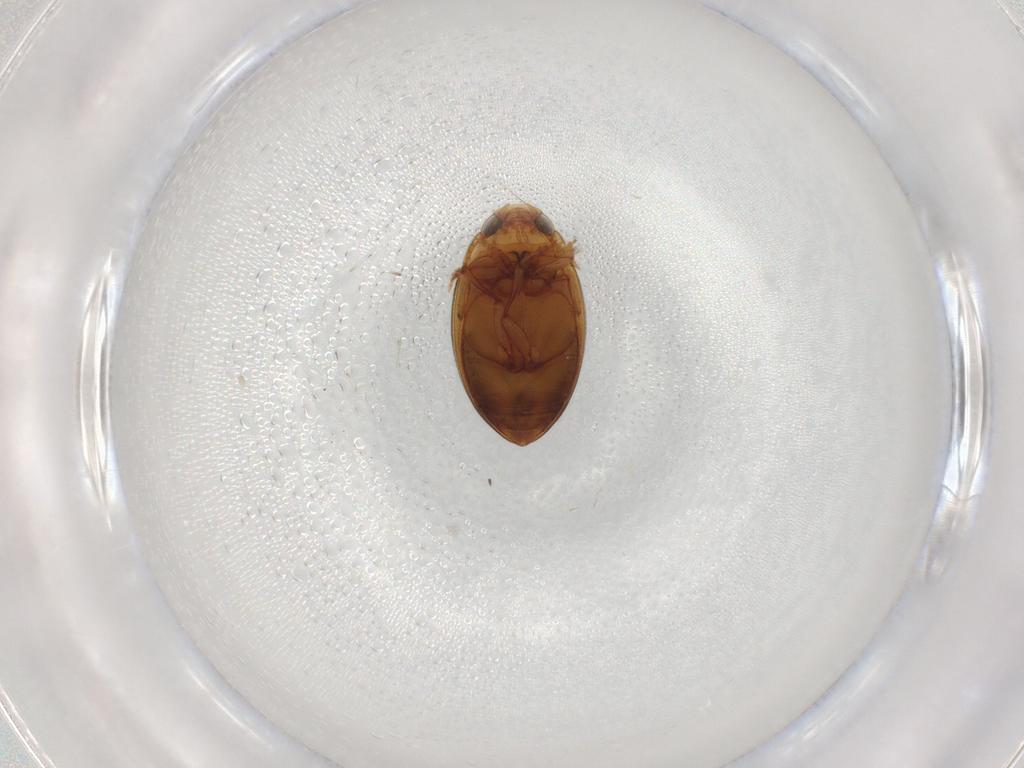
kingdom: Animalia
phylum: Arthropoda
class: Insecta
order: Coleoptera
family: Dytiscidae
